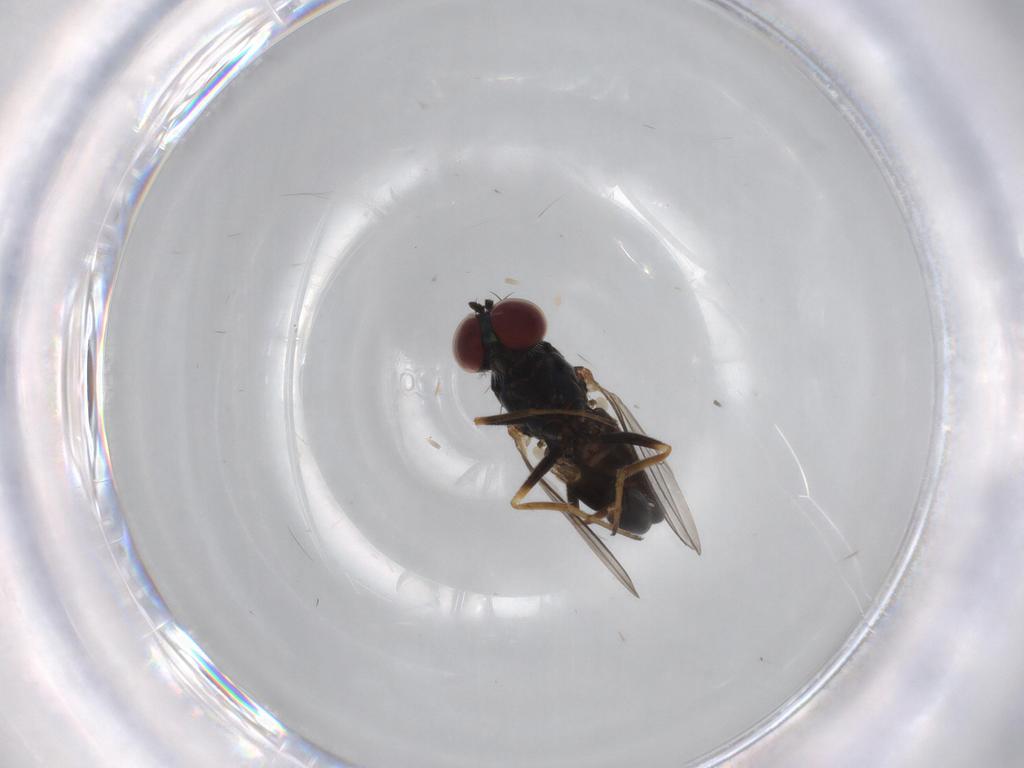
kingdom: Animalia
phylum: Arthropoda
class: Insecta
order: Diptera
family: Dolichopodidae
